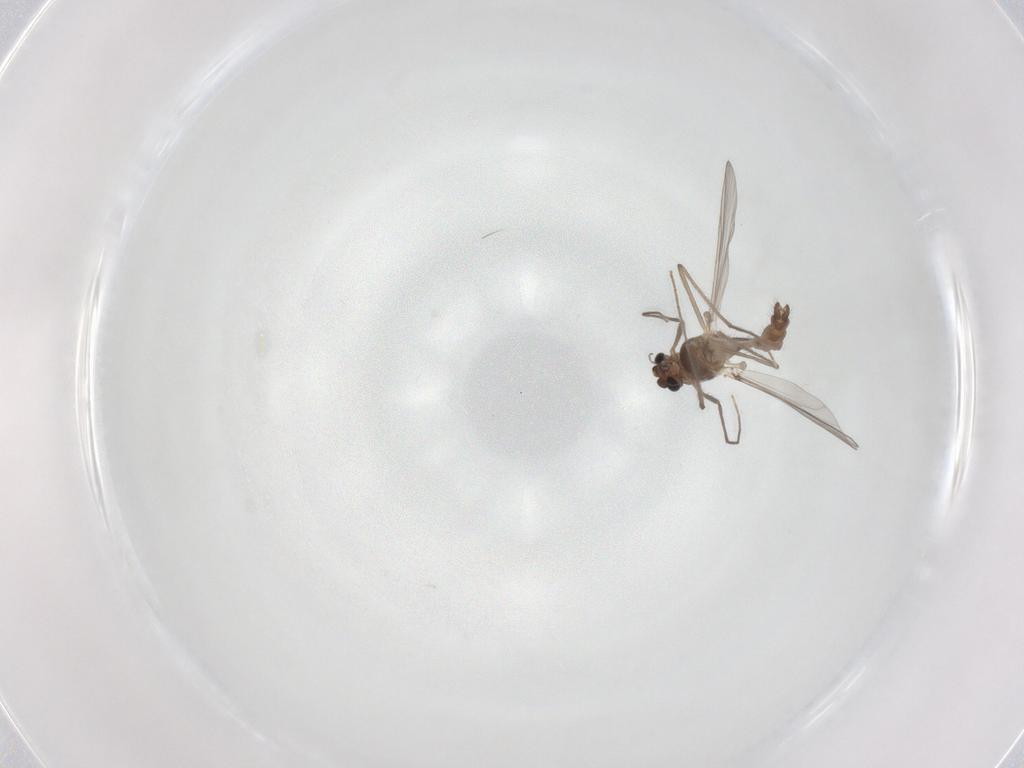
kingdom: Animalia
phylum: Arthropoda
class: Insecta
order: Diptera
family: Chironomidae
